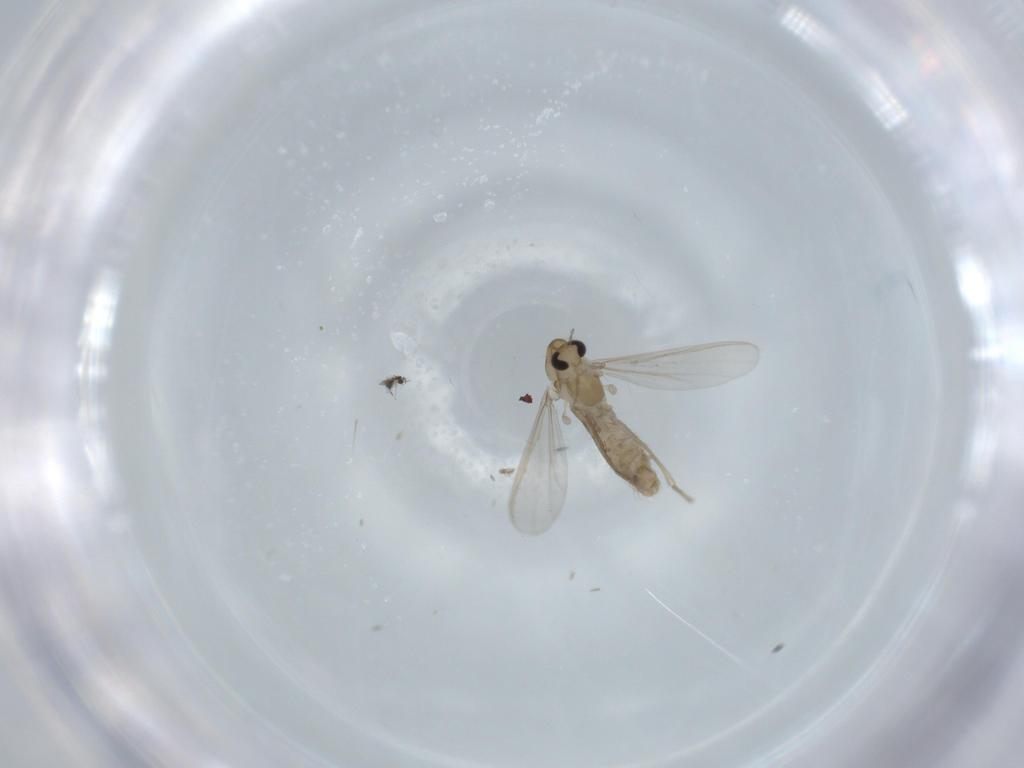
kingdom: Animalia
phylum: Arthropoda
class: Insecta
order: Diptera
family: Chironomidae
